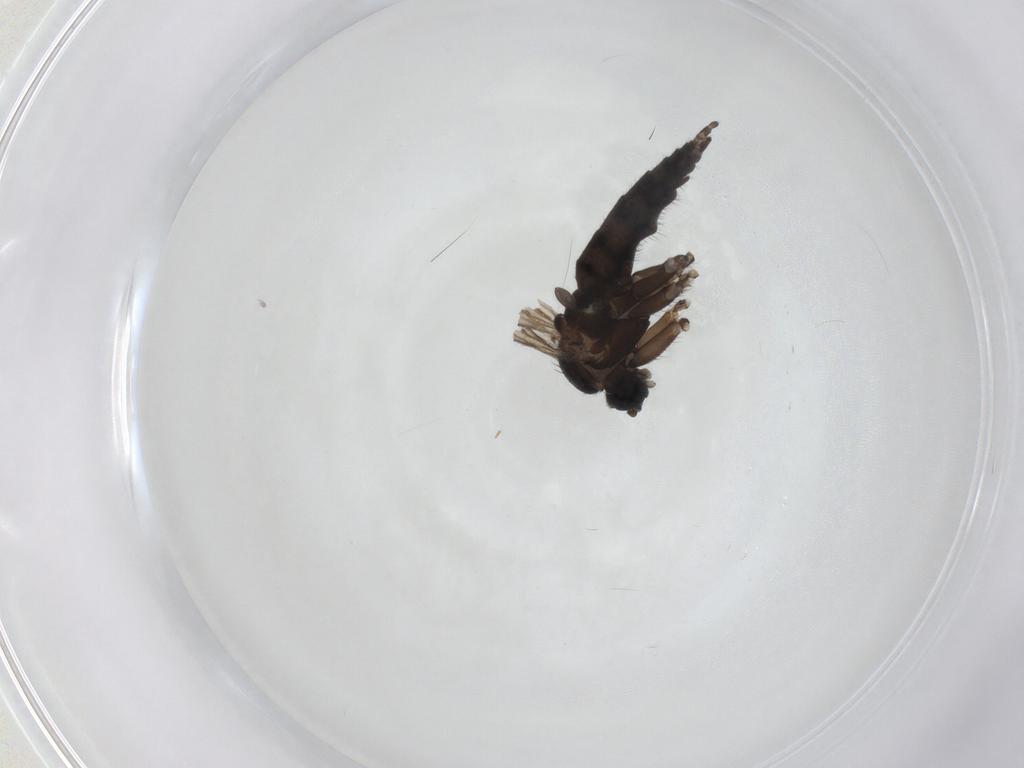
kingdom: Animalia
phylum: Arthropoda
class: Insecta
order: Diptera
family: Sciaridae
